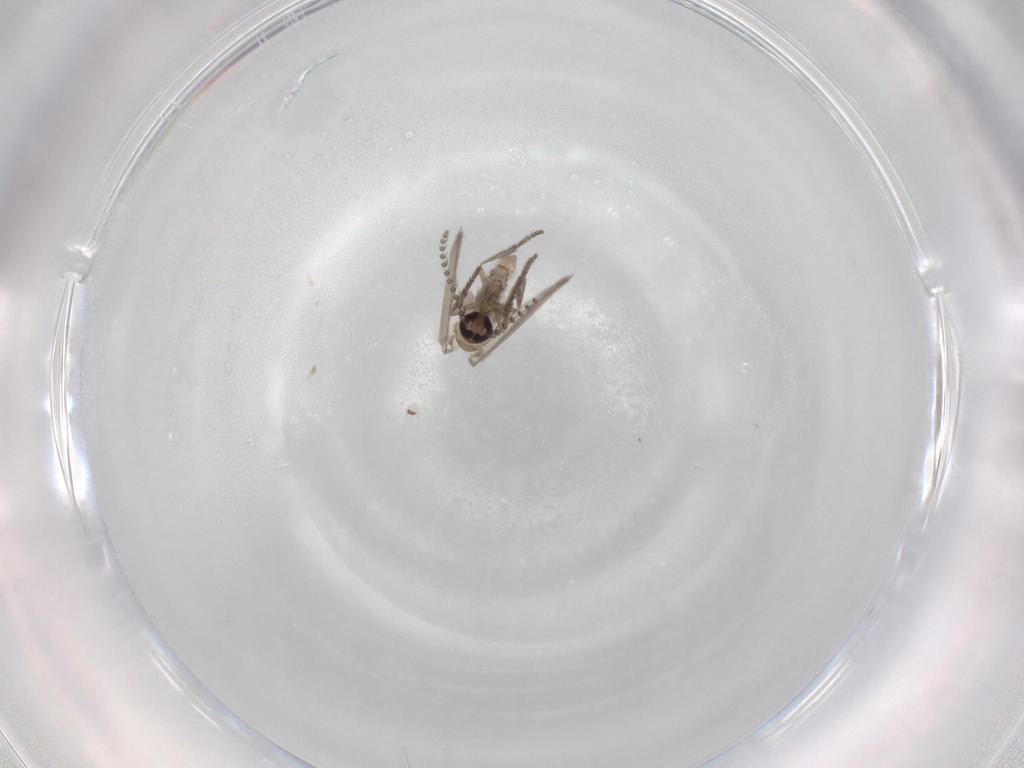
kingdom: Animalia
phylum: Arthropoda
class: Insecta
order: Diptera
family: Psychodidae
